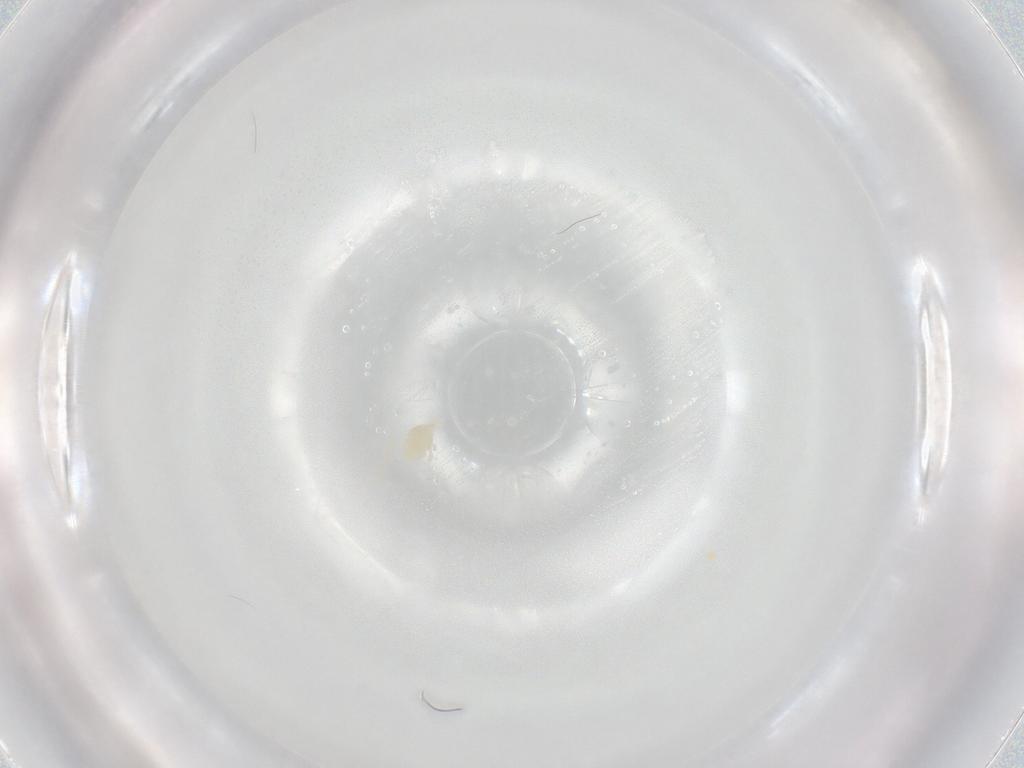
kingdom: Animalia
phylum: Arthropoda
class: Arachnida
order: Trombidiformes
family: Eupodidae
